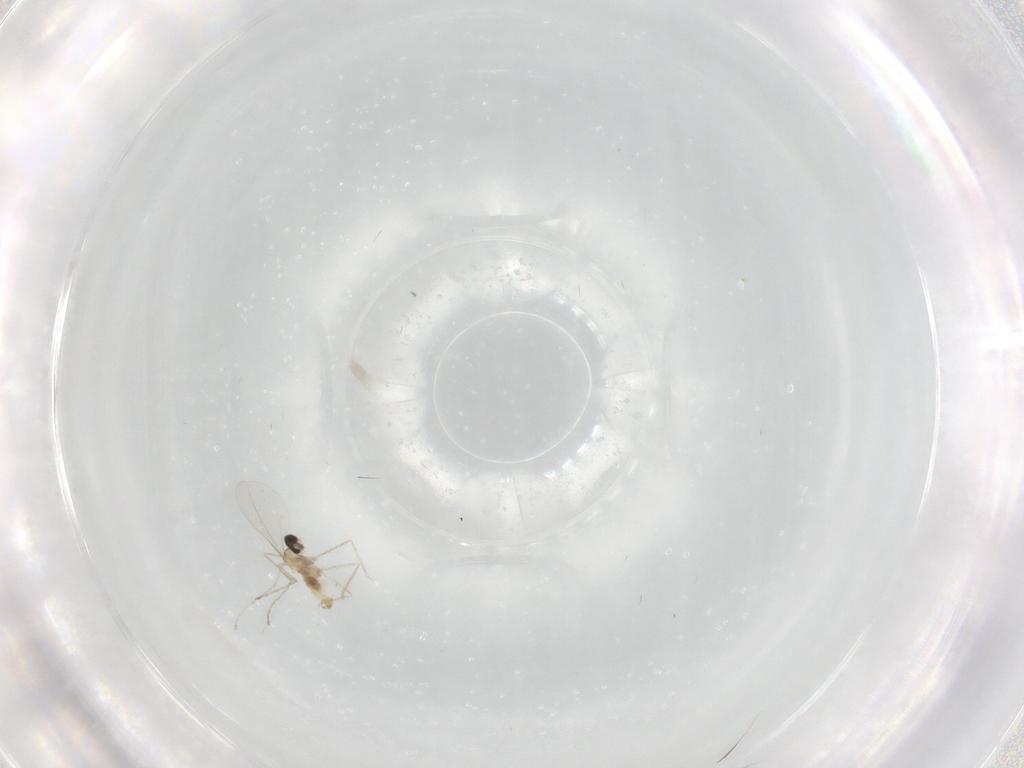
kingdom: Animalia
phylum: Arthropoda
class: Insecta
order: Diptera
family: Cecidomyiidae
